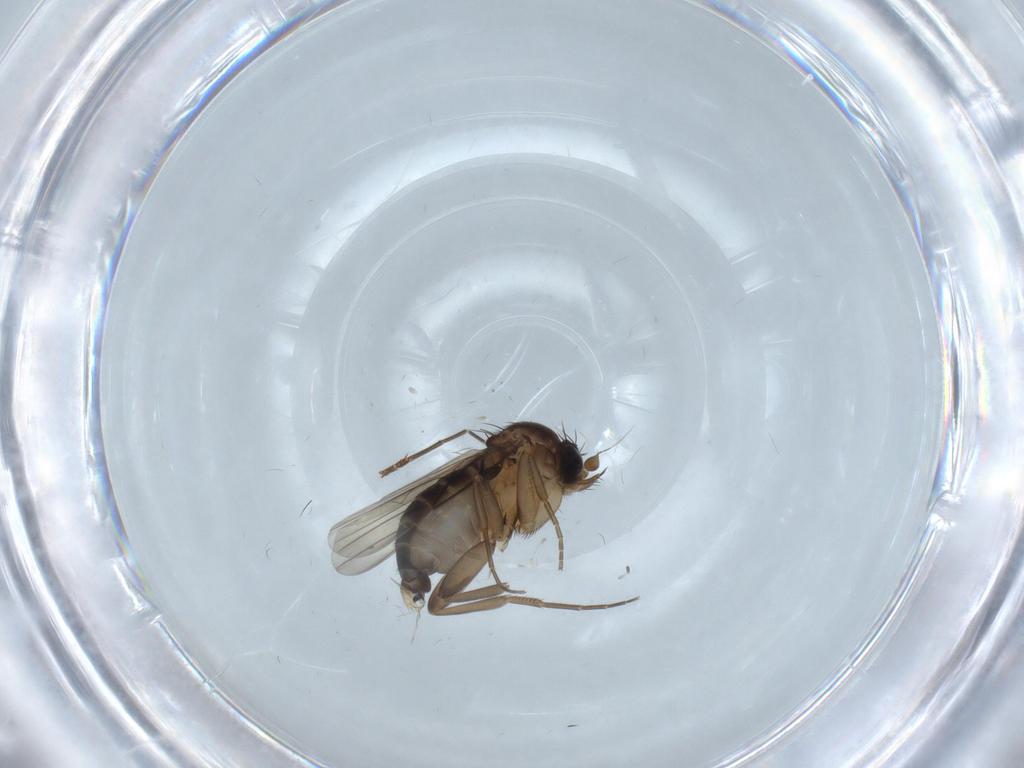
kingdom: Animalia
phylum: Arthropoda
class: Insecta
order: Diptera
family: Phoridae
